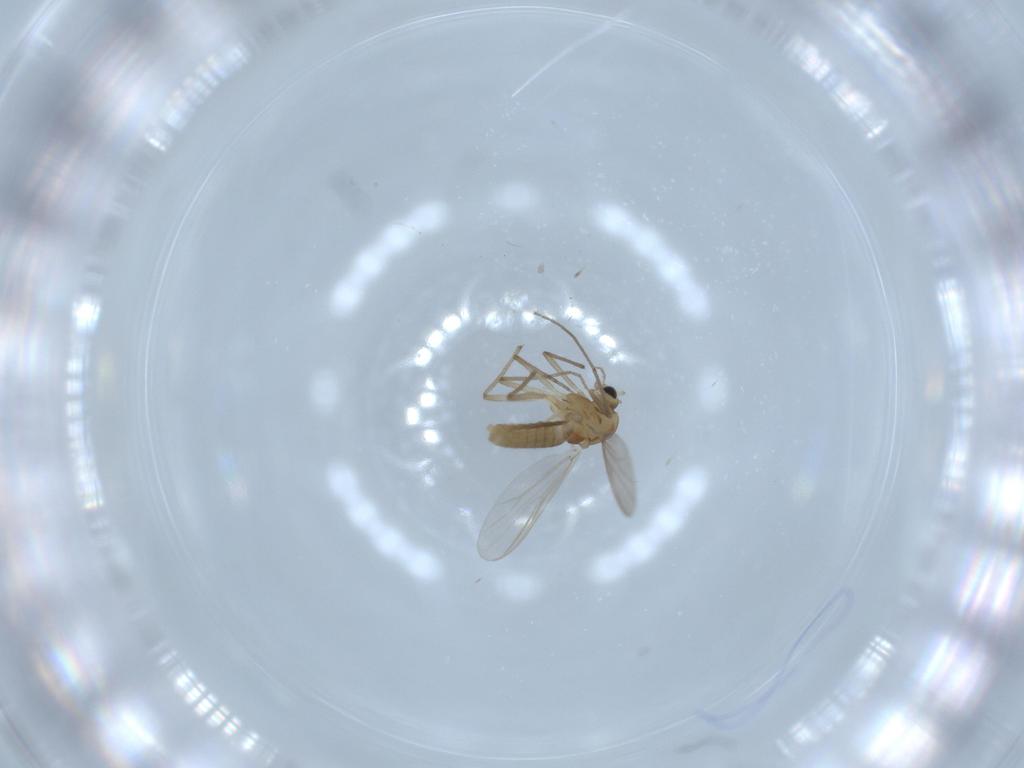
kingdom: Animalia
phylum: Arthropoda
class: Insecta
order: Diptera
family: Chironomidae
